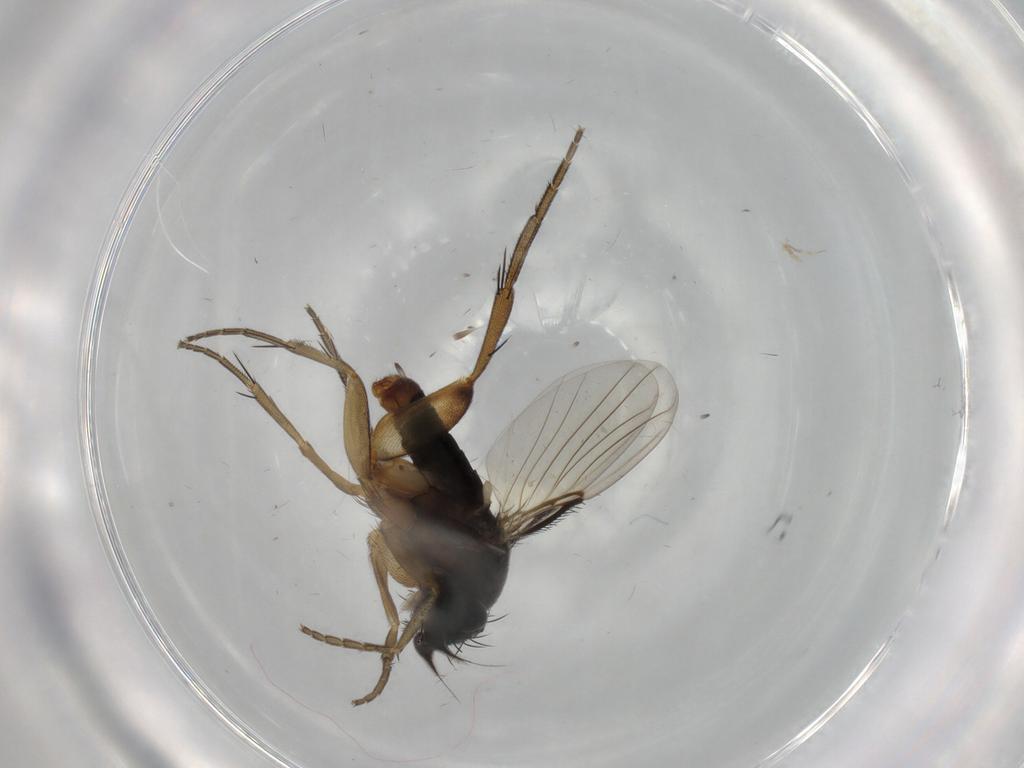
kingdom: Animalia
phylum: Arthropoda
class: Insecta
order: Diptera
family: Phoridae
